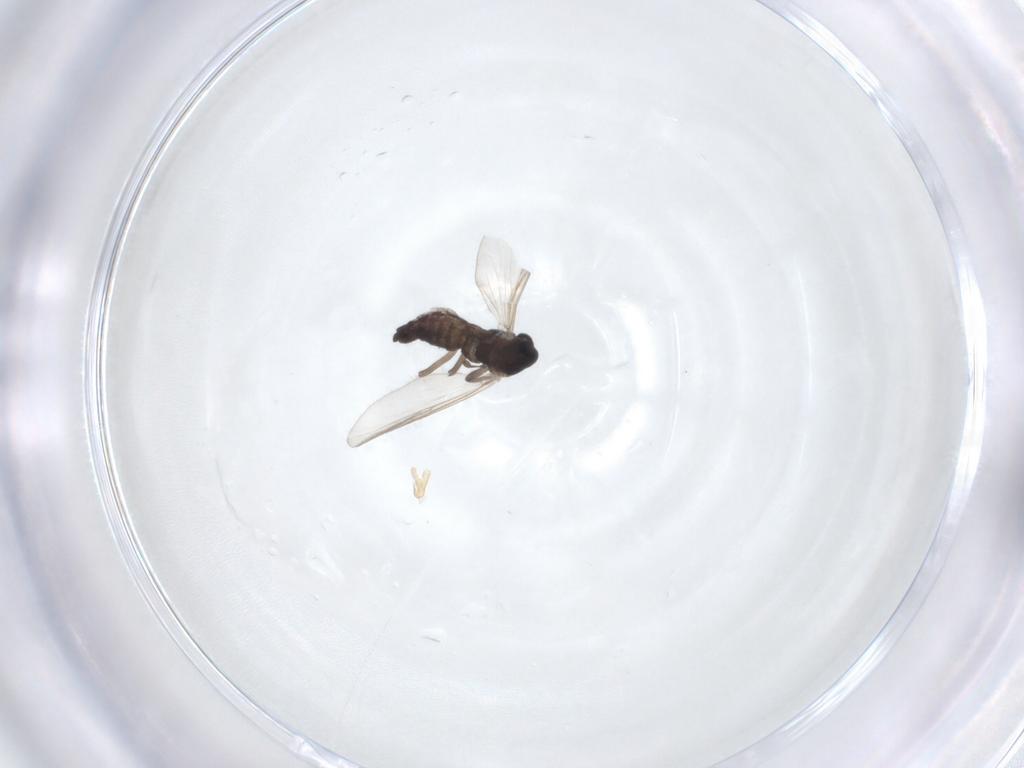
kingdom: Animalia
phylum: Arthropoda
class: Insecta
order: Diptera
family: Chironomidae
